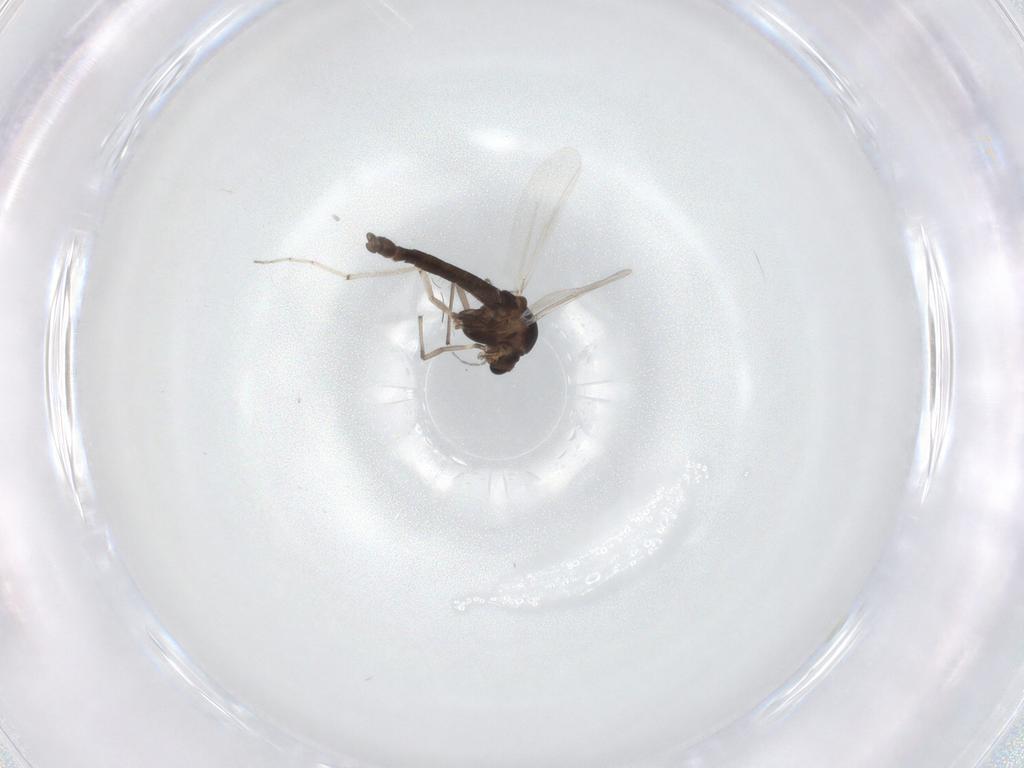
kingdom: Animalia
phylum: Arthropoda
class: Insecta
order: Diptera
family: Chironomidae
